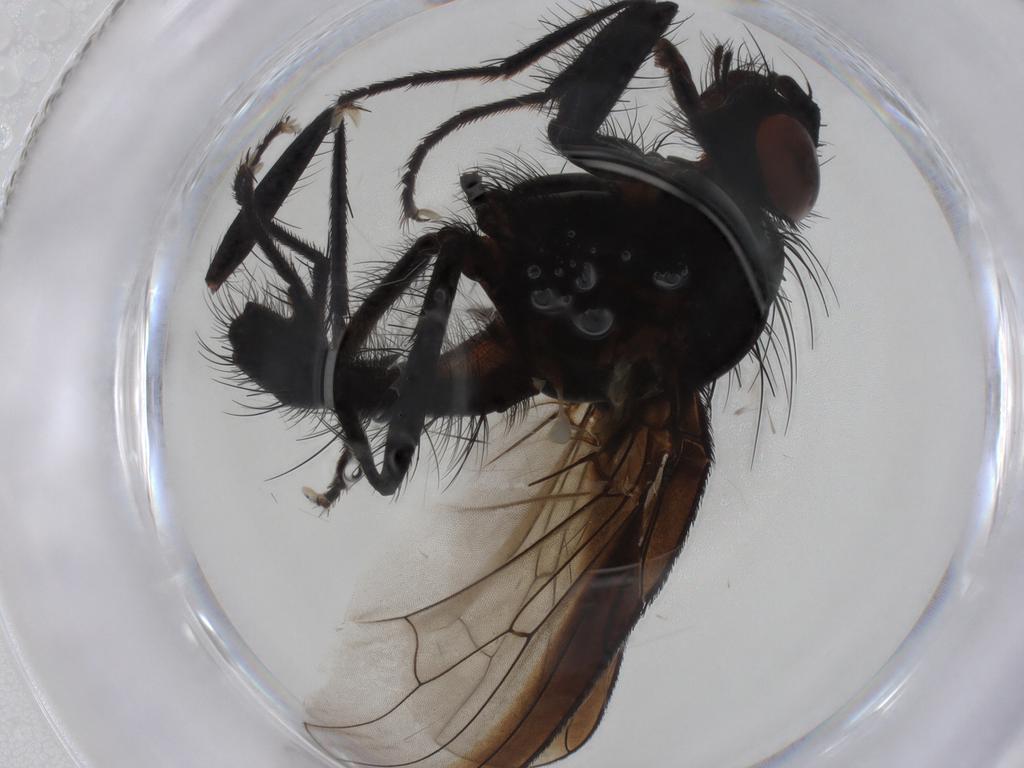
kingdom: Animalia
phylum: Arthropoda
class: Insecta
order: Diptera
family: Anthomyiidae
